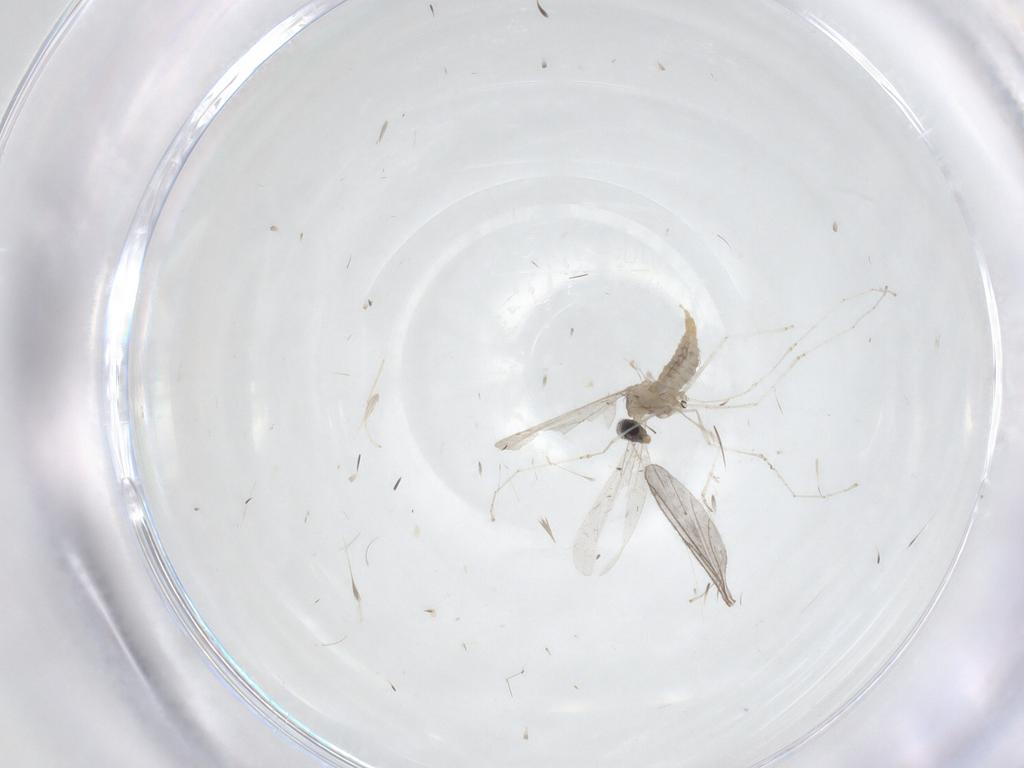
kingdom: Animalia
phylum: Arthropoda
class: Insecta
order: Diptera
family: Cecidomyiidae
